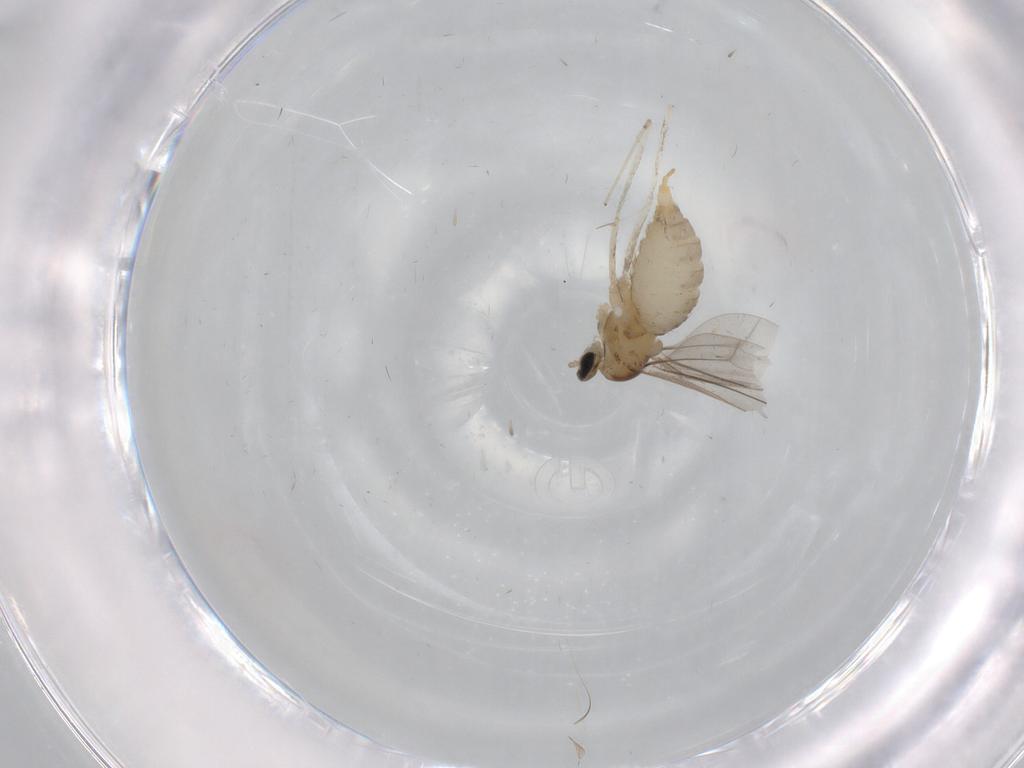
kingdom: Animalia
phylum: Arthropoda
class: Insecta
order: Diptera
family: Cecidomyiidae
